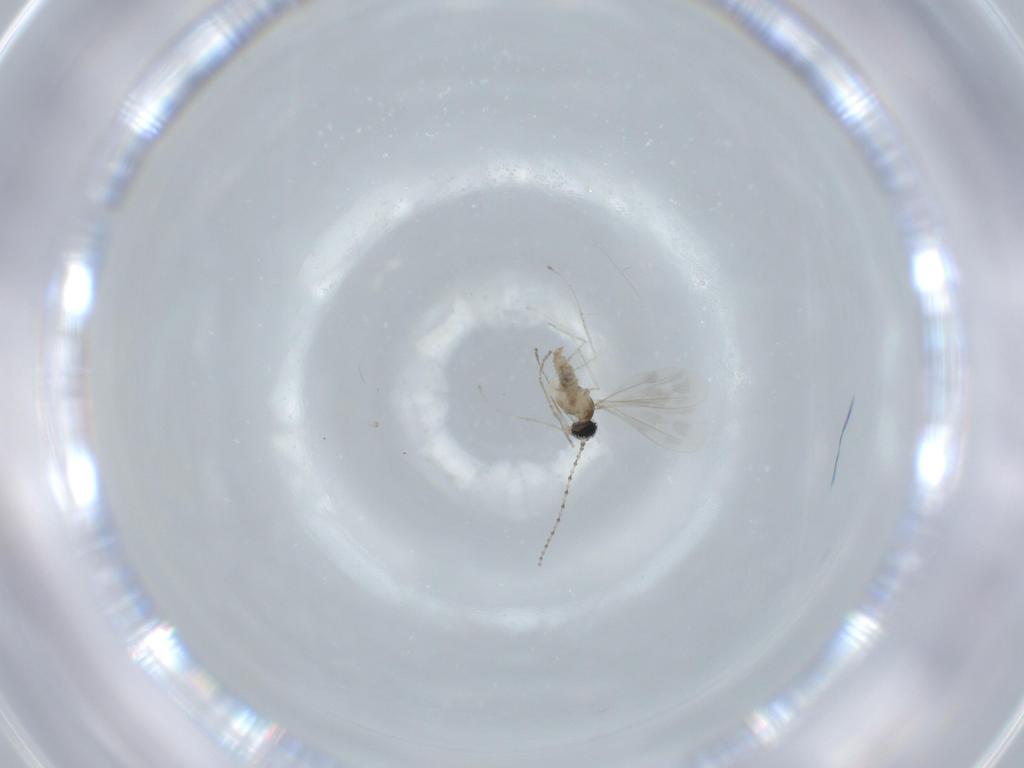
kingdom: Animalia
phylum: Arthropoda
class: Insecta
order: Diptera
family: Cecidomyiidae
